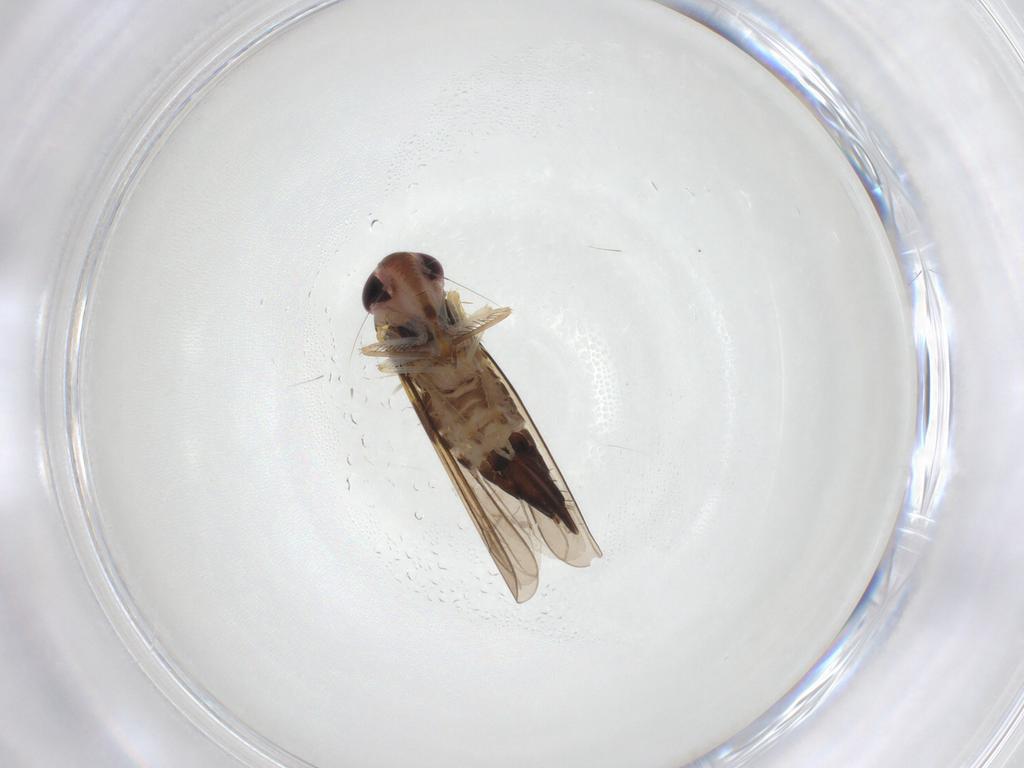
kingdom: Animalia
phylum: Arthropoda
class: Insecta
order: Hemiptera
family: Cicadellidae
